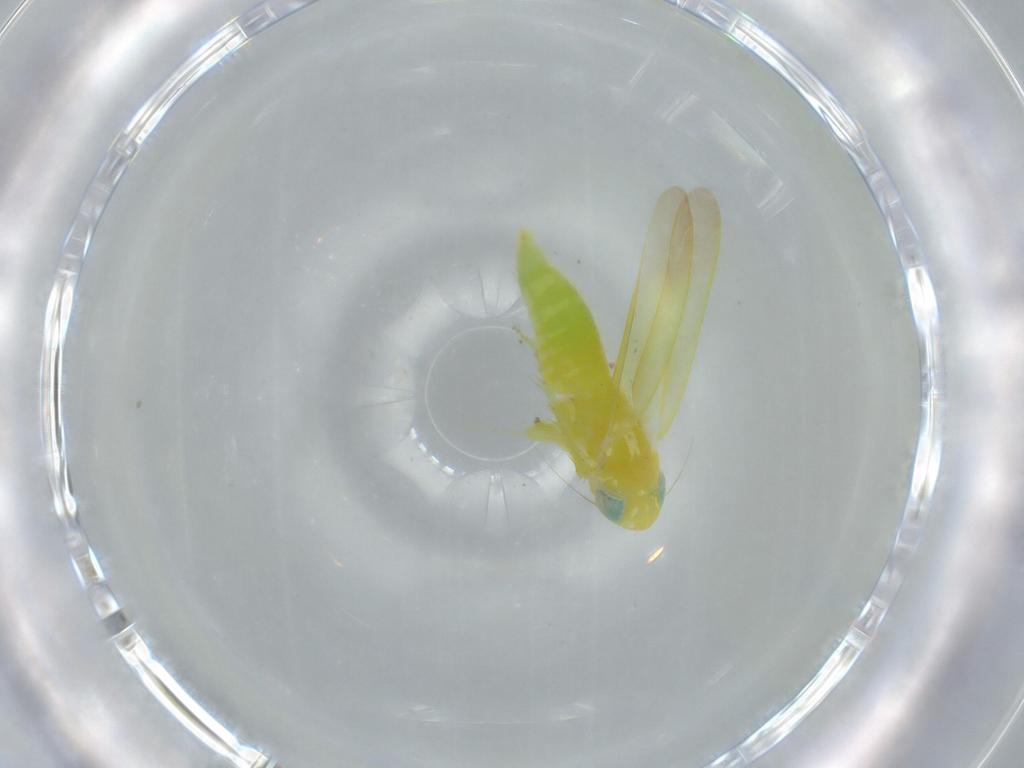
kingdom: Animalia
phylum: Arthropoda
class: Insecta
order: Hemiptera
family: Cicadellidae
